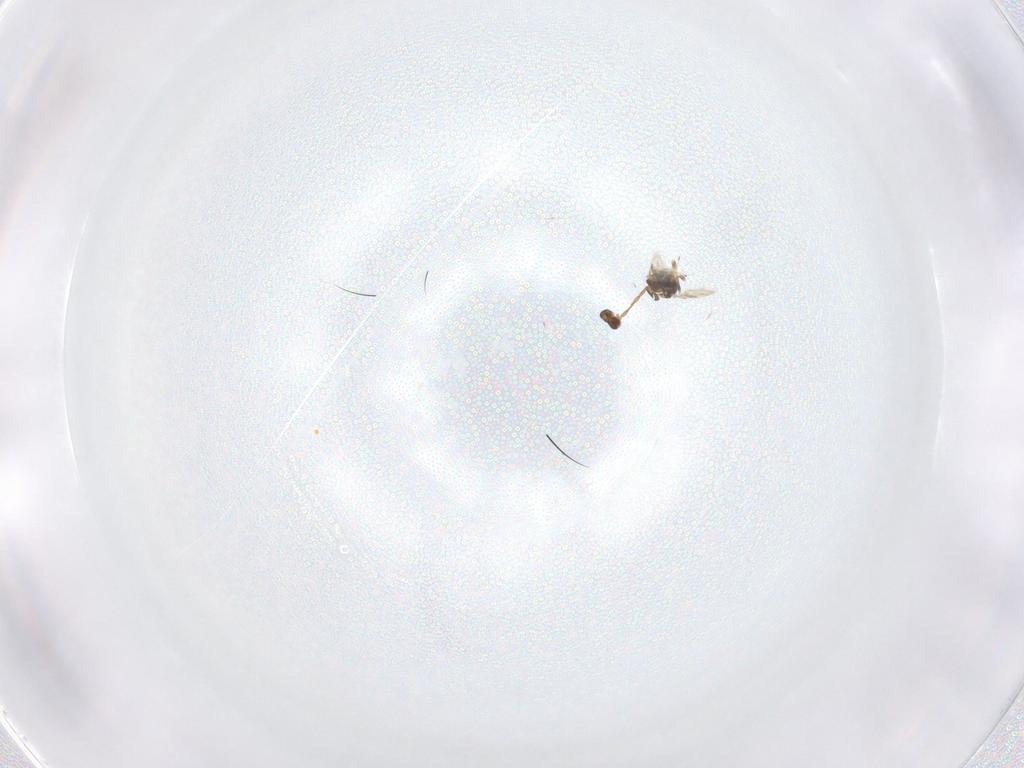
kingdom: Animalia
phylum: Arthropoda
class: Insecta
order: Hymenoptera
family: Azotidae
